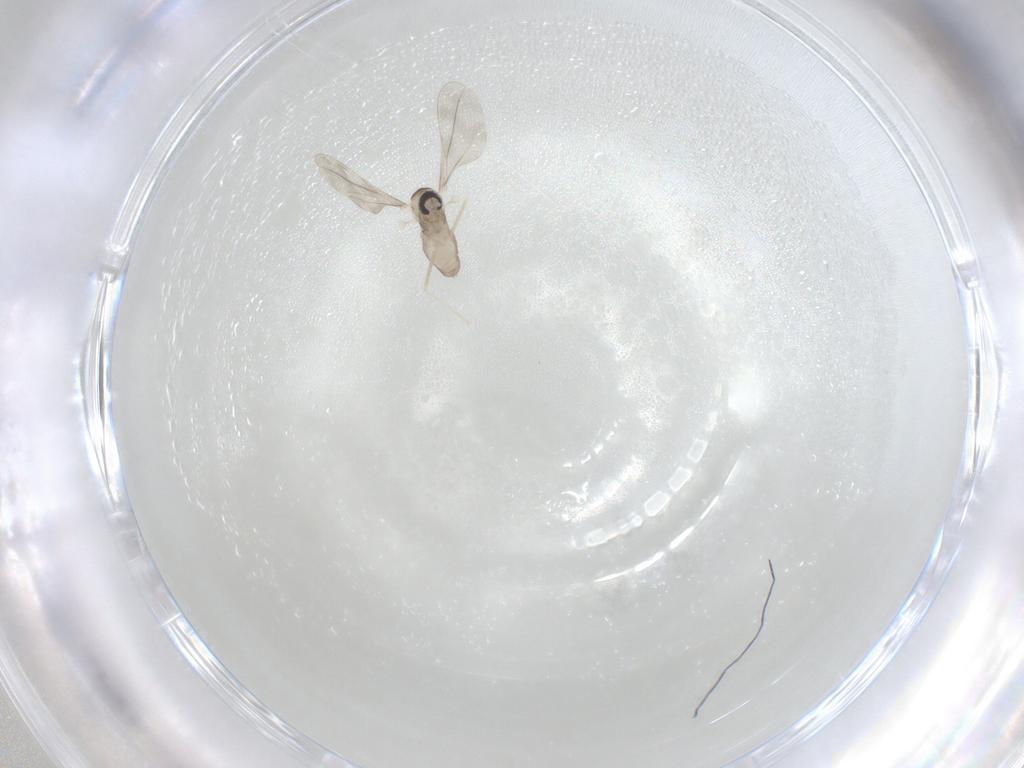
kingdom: Animalia
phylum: Arthropoda
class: Insecta
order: Diptera
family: Cecidomyiidae
